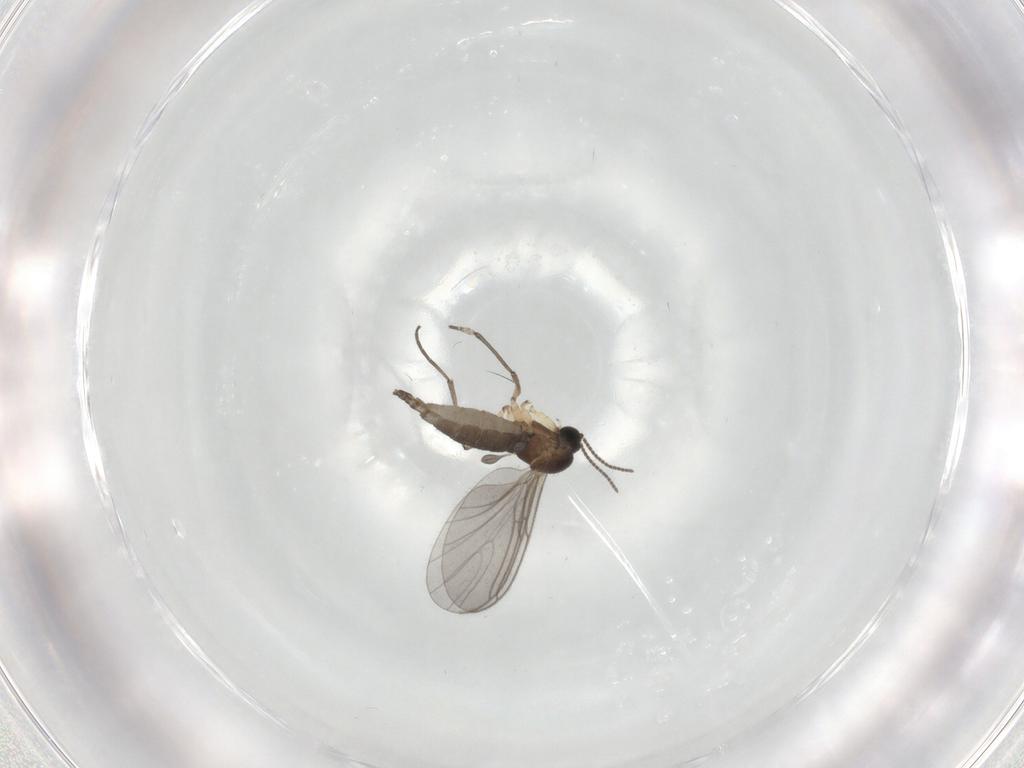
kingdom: Animalia
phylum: Arthropoda
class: Insecta
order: Diptera
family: Sciaridae
